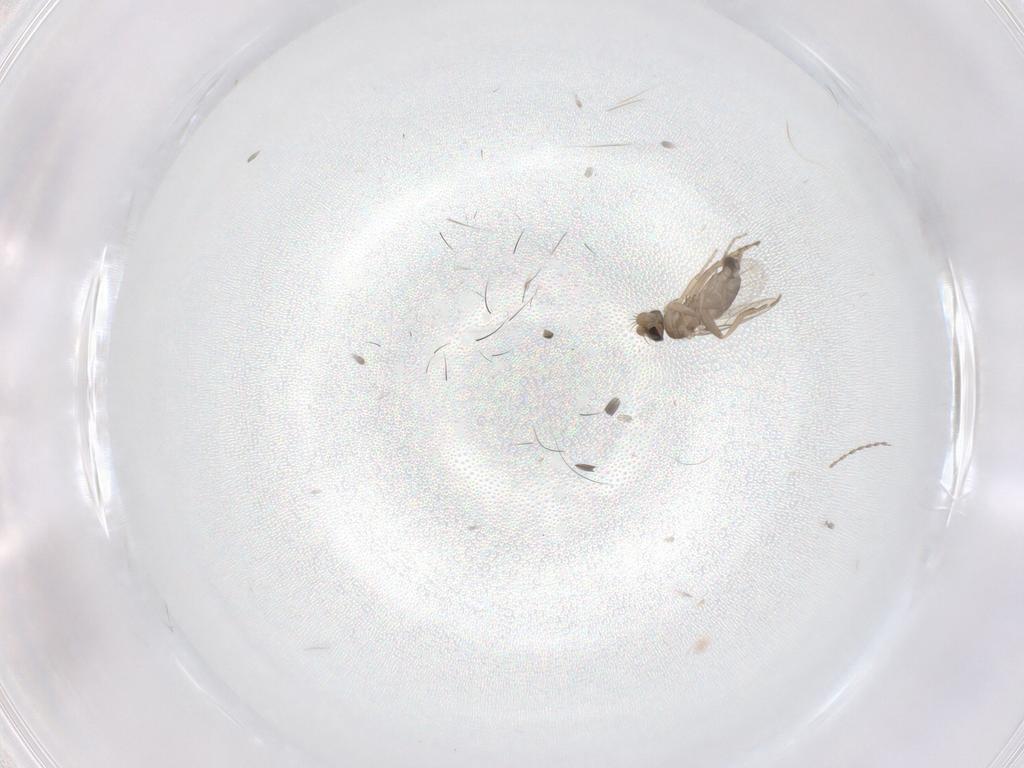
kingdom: Animalia
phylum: Arthropoda
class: Insecta
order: Diptera
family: Phoridae
